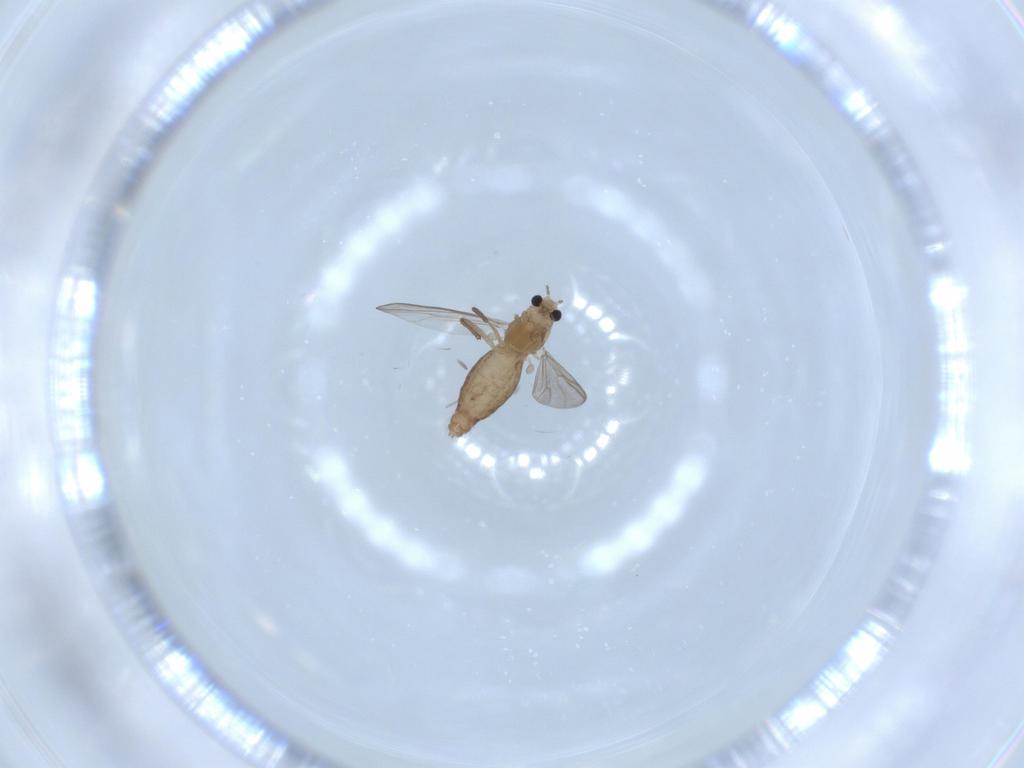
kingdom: Animalia
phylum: Arthropoda
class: Insecta
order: Diptera
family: Chironomidae
